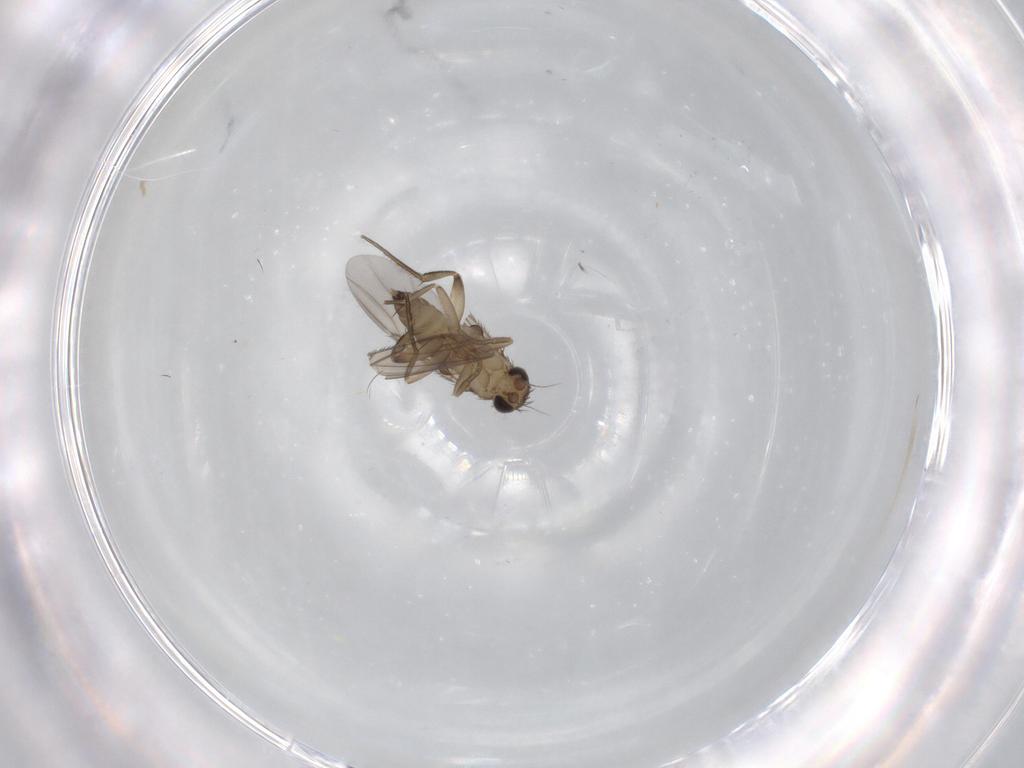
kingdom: Animalia
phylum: Arthropoda
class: Insecta
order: Diptera
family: Phoridae
